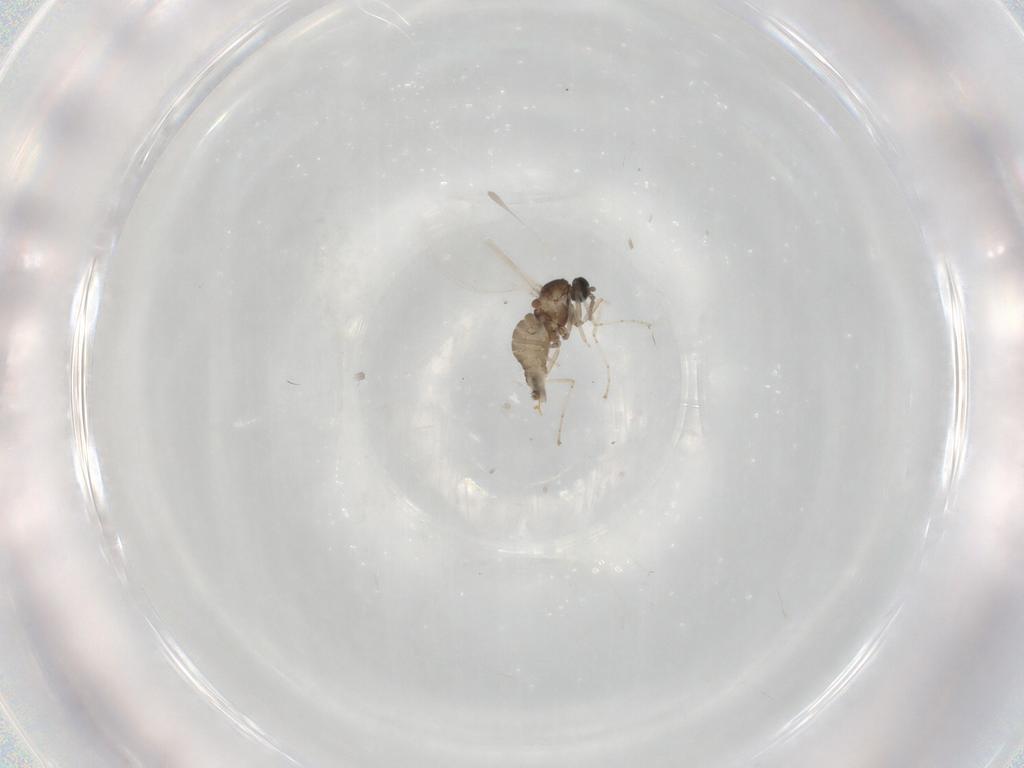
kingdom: Animalia
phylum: Arthropoda
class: Insecta
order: Diptera
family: Cecidomyiidae
